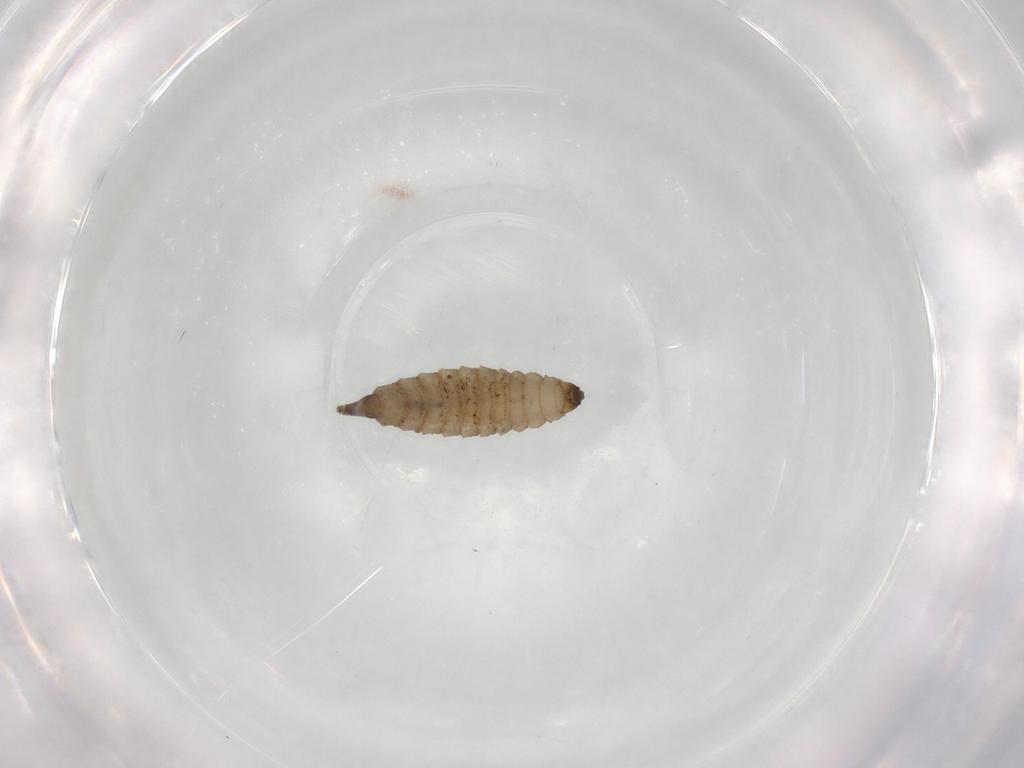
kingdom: Animalia
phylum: Arthropoda
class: Insecta
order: Diptera
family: Psychodidae
